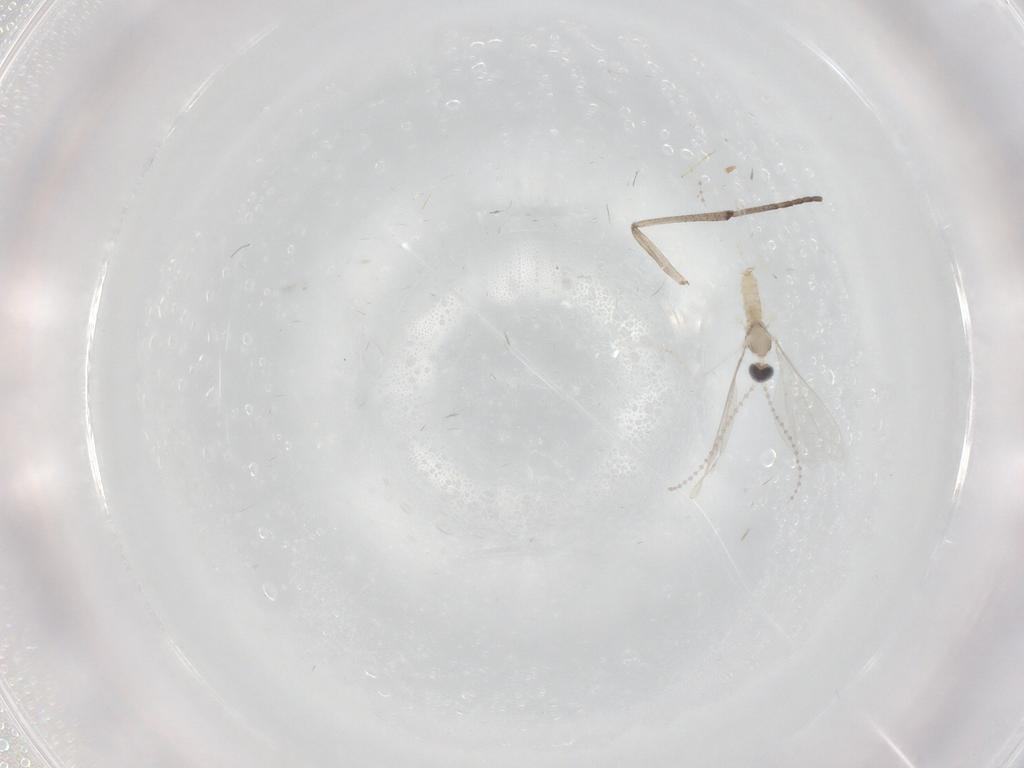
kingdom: Animalia
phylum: Arthropoda
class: Insecta
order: Diptera
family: Cecidomyiidae
